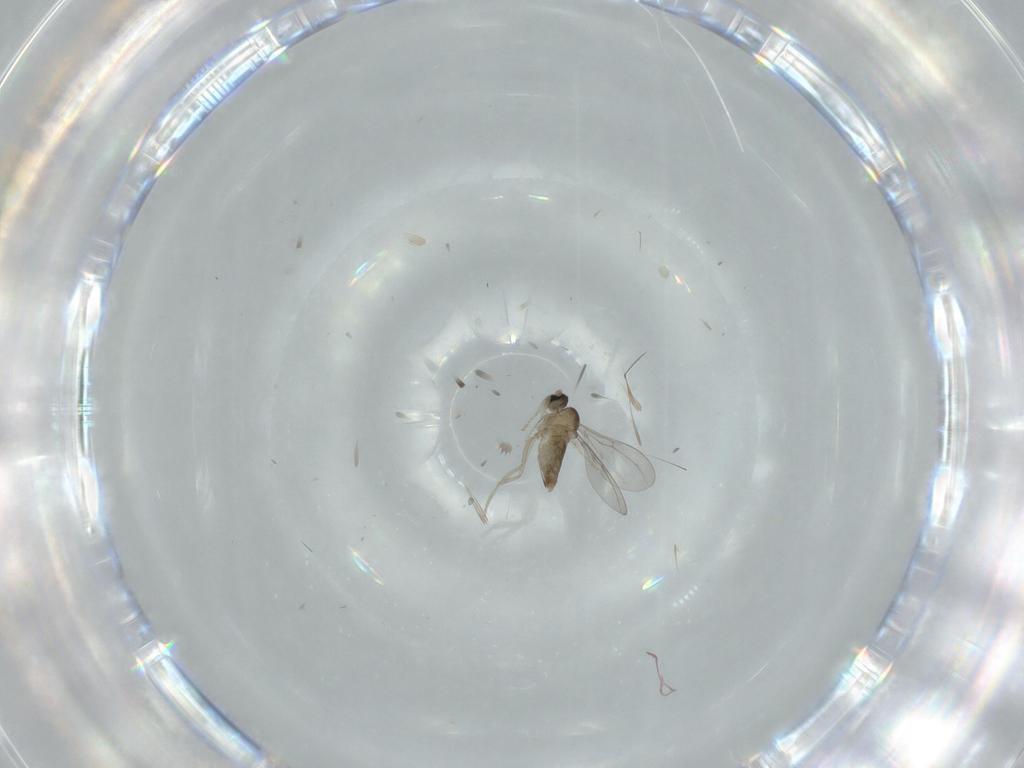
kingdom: Animalia
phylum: Arthropoda
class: Insecta
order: Diptera
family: Cecidomyiidae
